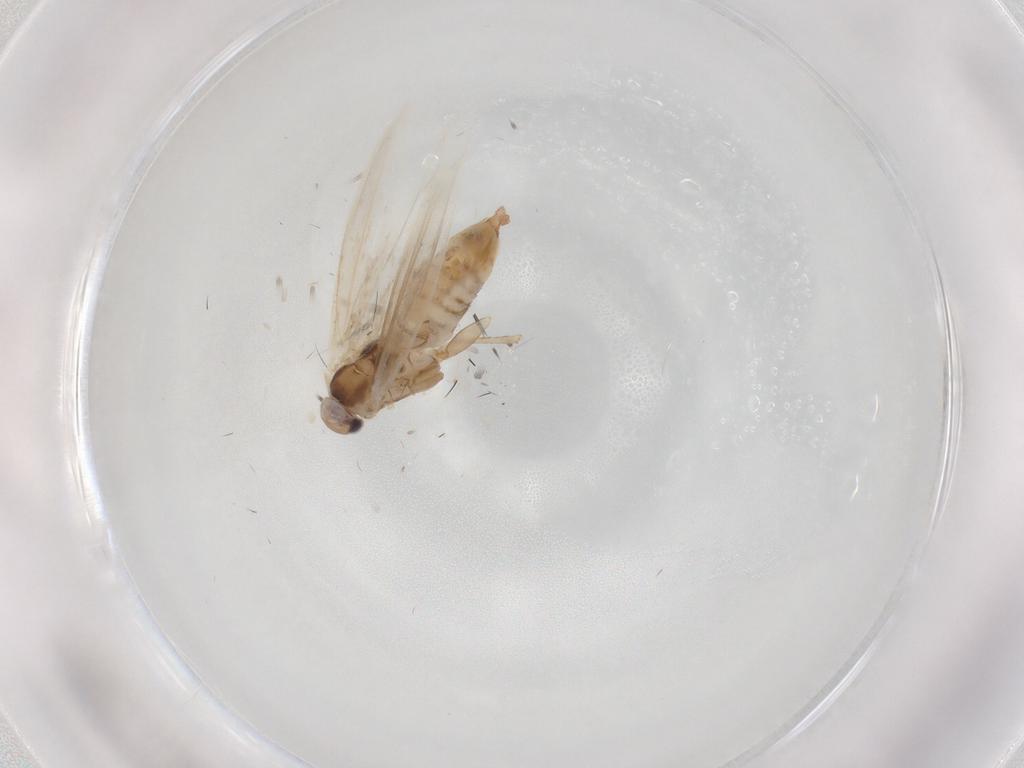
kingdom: Animalia
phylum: Arthropoda
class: Insecta
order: Lepidoptera
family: Bucculatricidae
